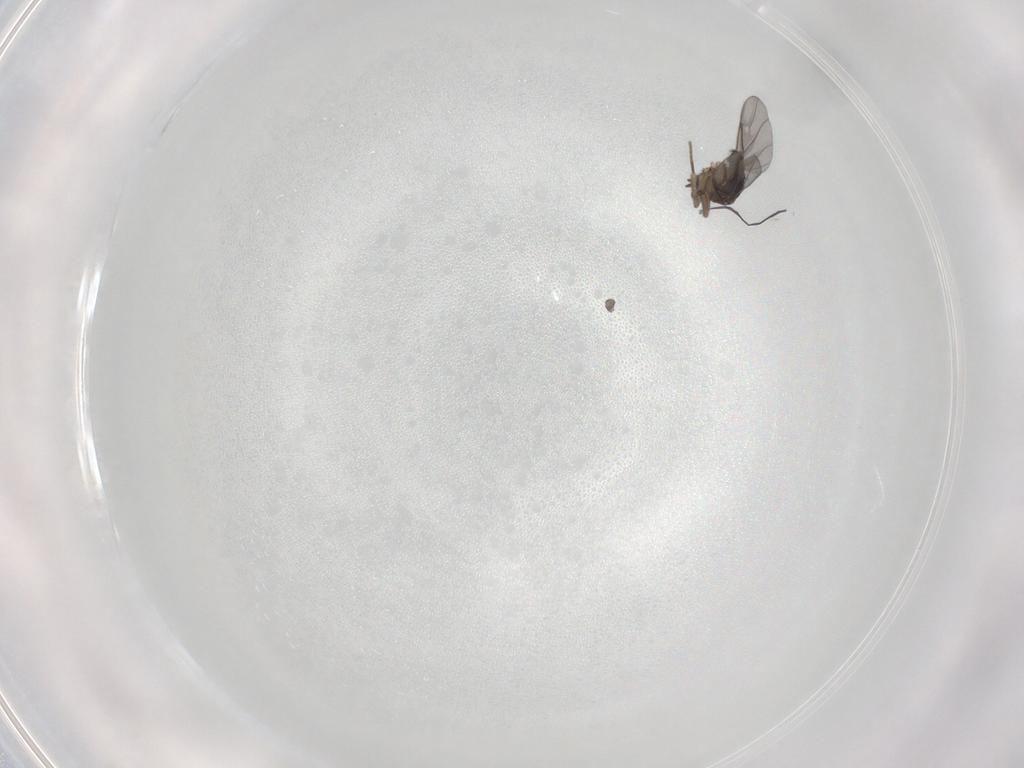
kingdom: Animalia
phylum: Arthropoda
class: Insecta
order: Diptera
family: Phoridae
